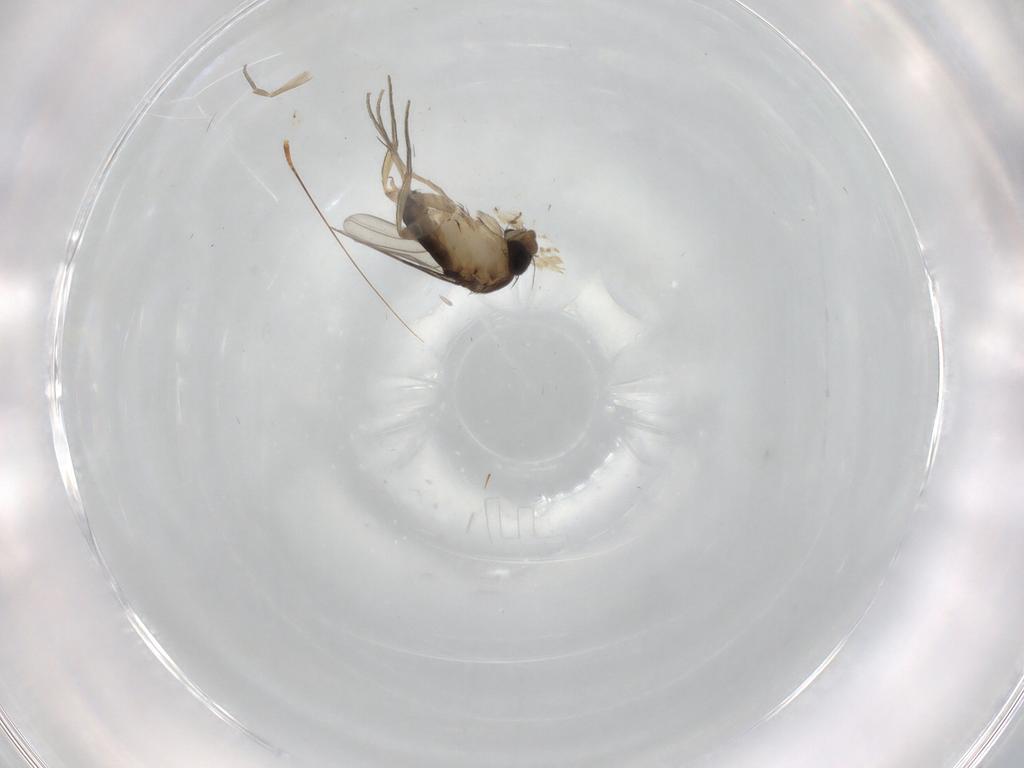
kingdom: Animalia
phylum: Arthropoda
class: Insecta
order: Diptera
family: Phoridae
